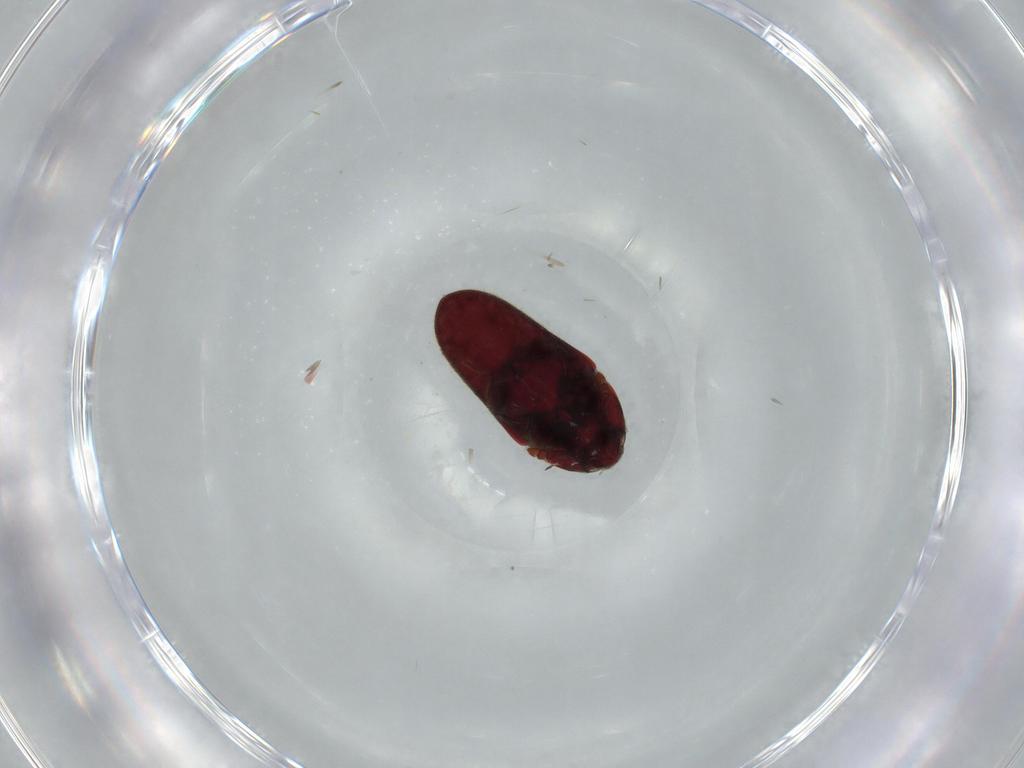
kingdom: Animalia
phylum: Arthropoda
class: Insecta
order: Coleoptera
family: Throscidae
